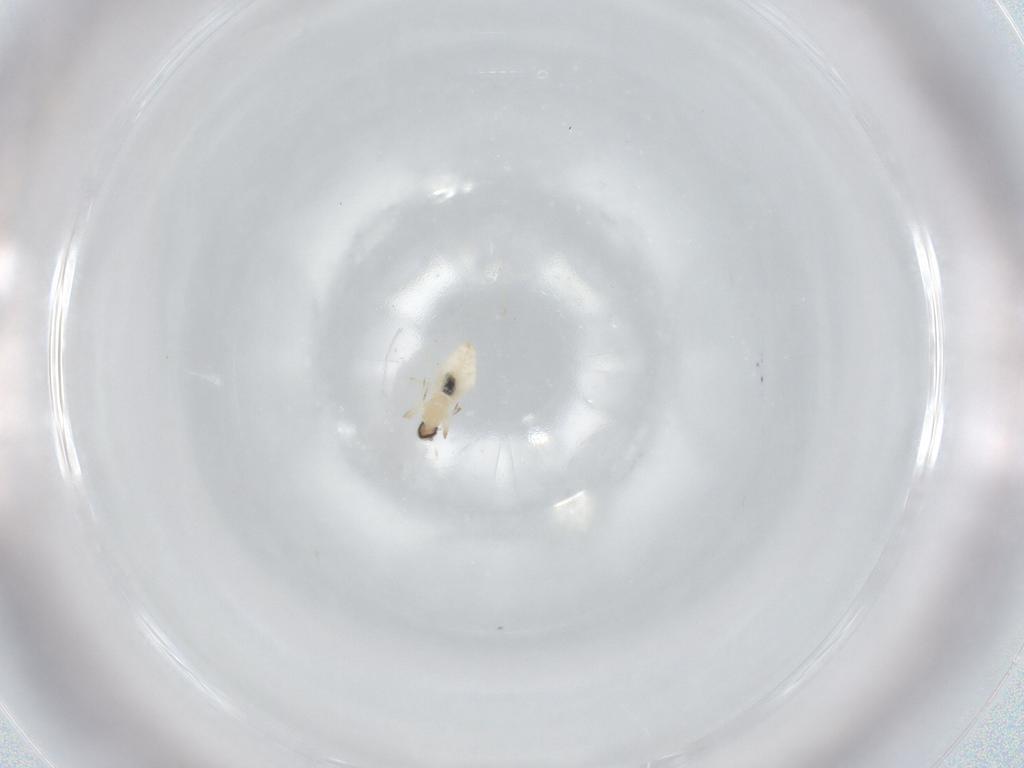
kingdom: Animalia
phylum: Arthropoda
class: Insecta
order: Diptera
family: Cecidomyiidae
